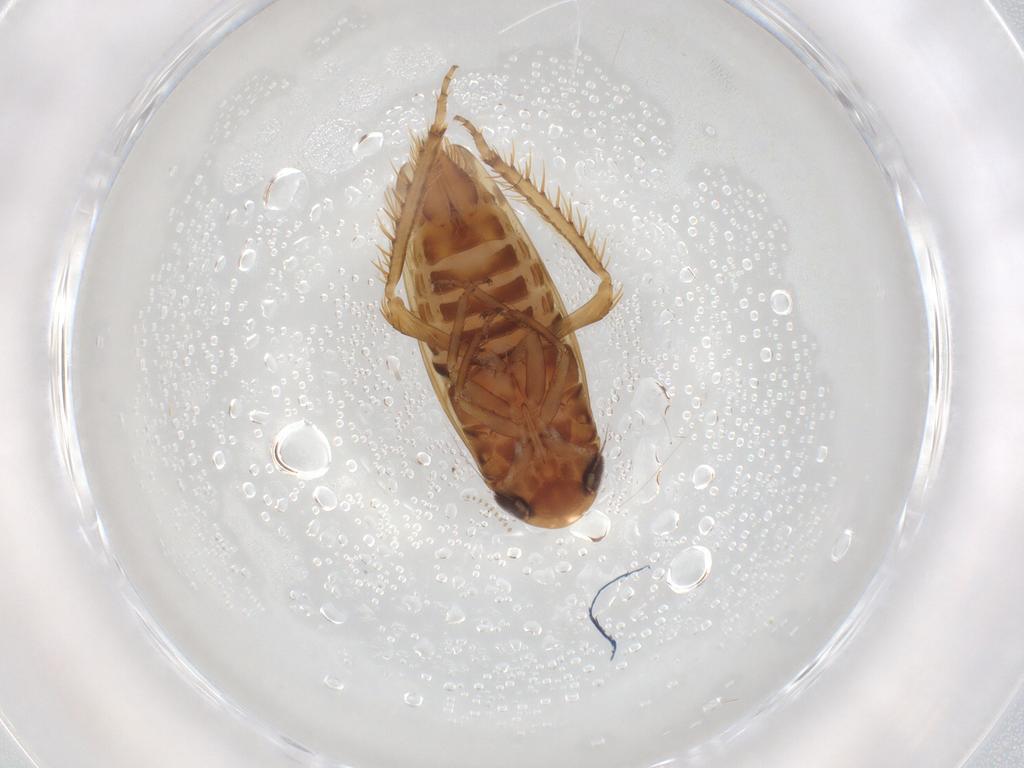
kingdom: Animalia
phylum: Arthropoda
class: Insecta
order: Hemiptera
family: Cicadellidae
